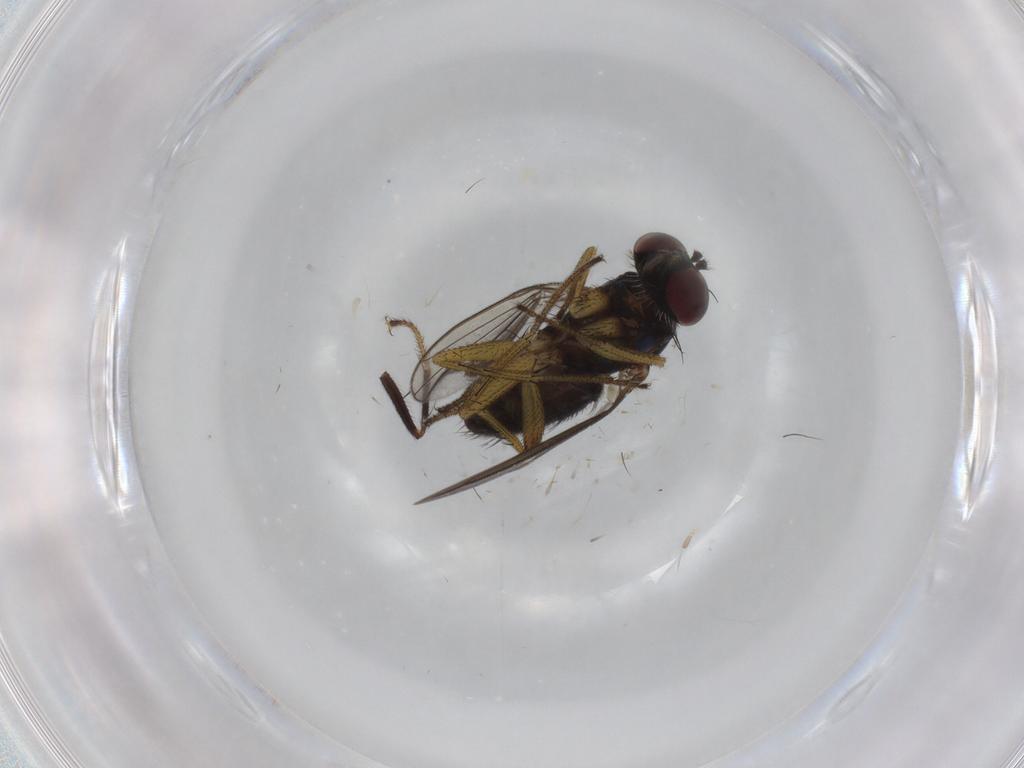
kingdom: Animalia
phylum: Arthropoda
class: Insecta
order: Diptera
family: Dolichopodidae
